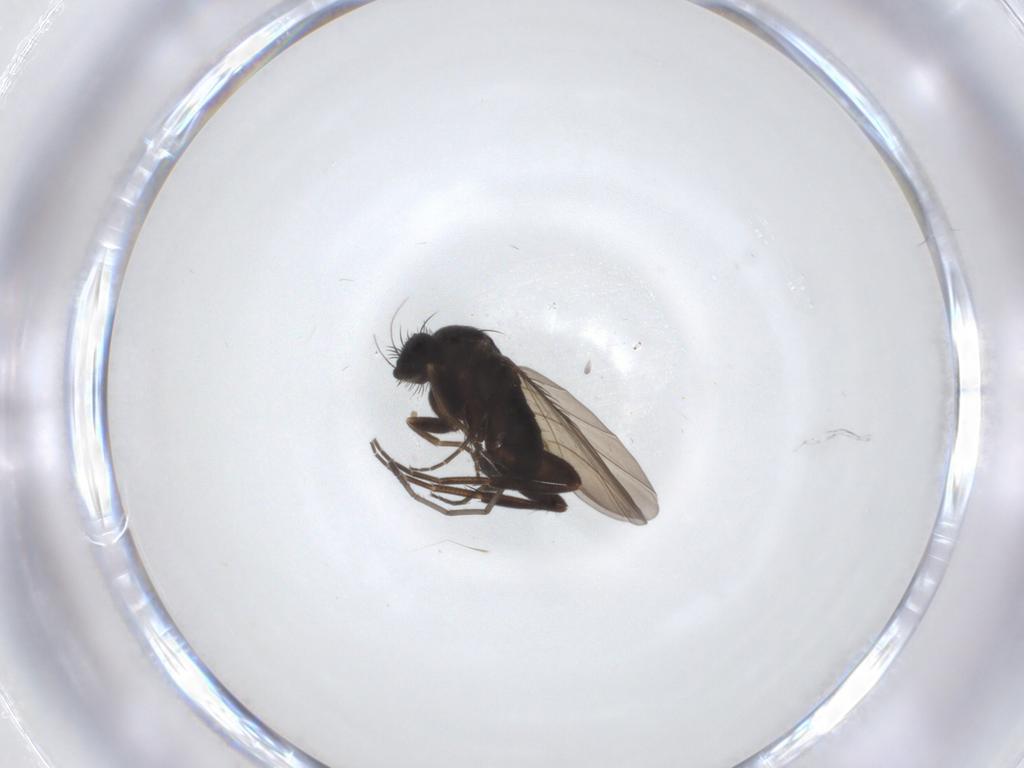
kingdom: Animalia
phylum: Arthropoda
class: Insecta
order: Diptera
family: Phoridae
